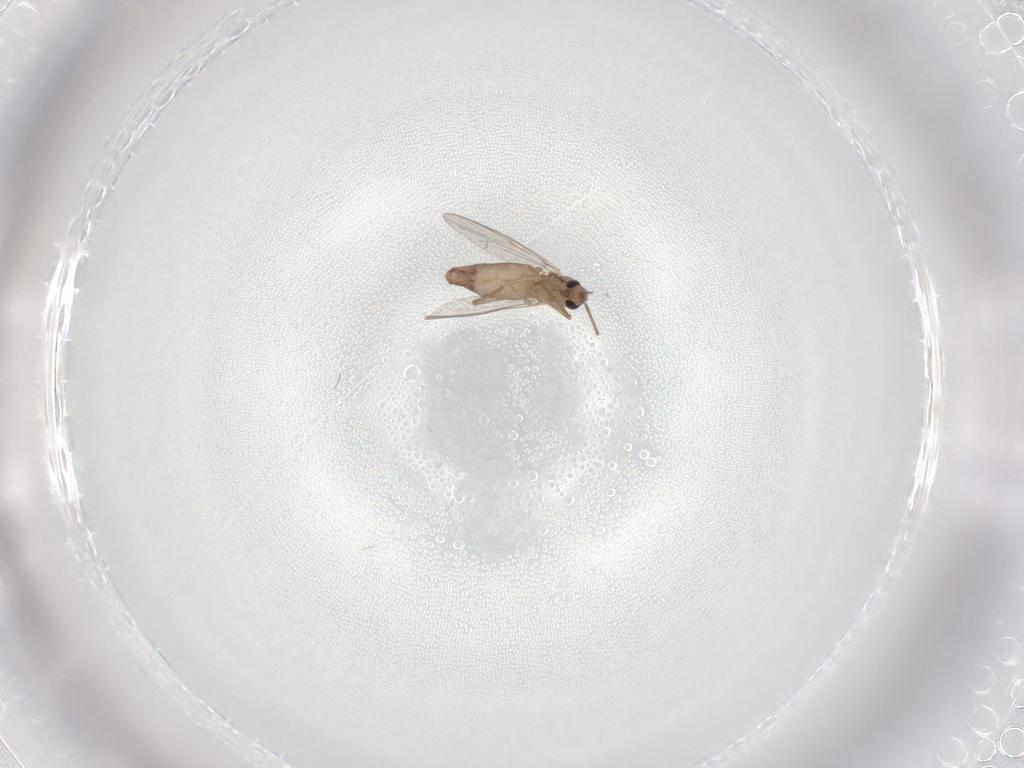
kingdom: Animalia
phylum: Arthropoda
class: Insecta
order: Diptera
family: Chironomidae
